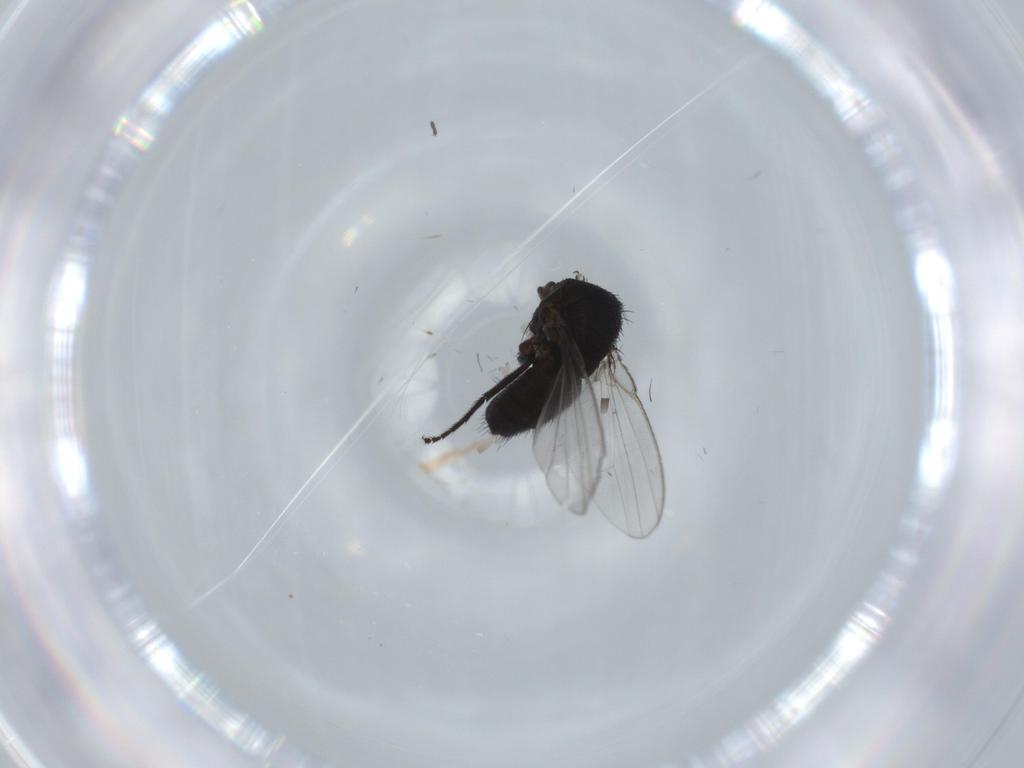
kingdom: Animalia
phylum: Arthropoda
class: Insecta
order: Diptera
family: Milichiidae
